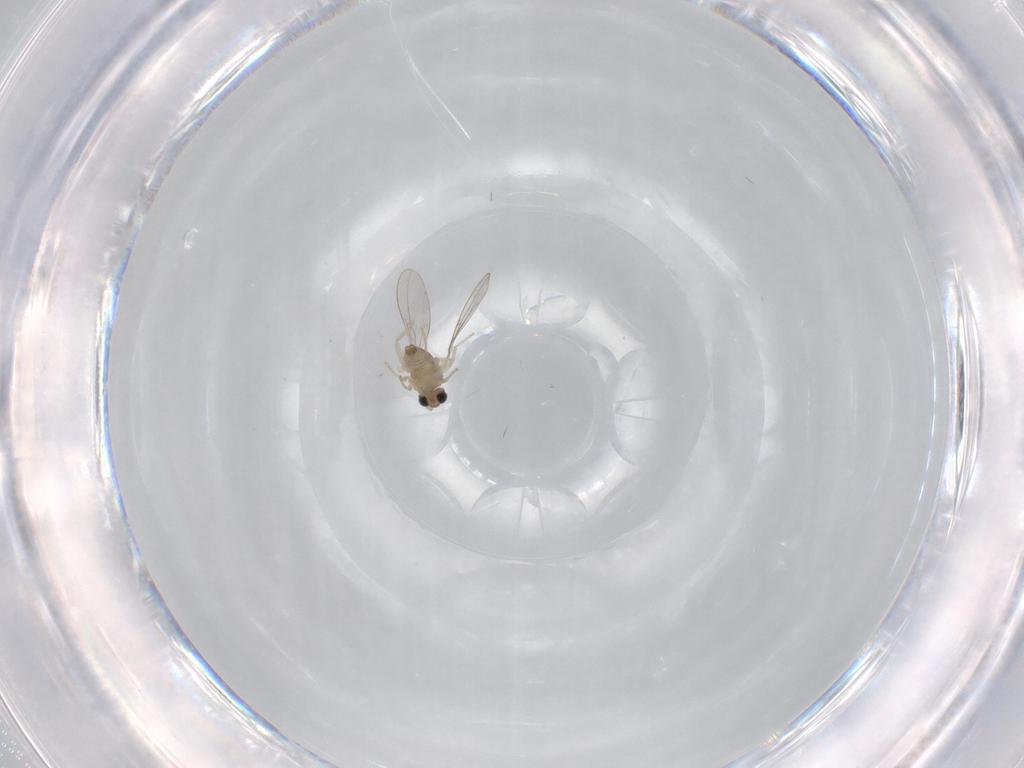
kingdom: Animalia
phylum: Arthropoda
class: Insecta
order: Diptera
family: Cecidomyiidae
